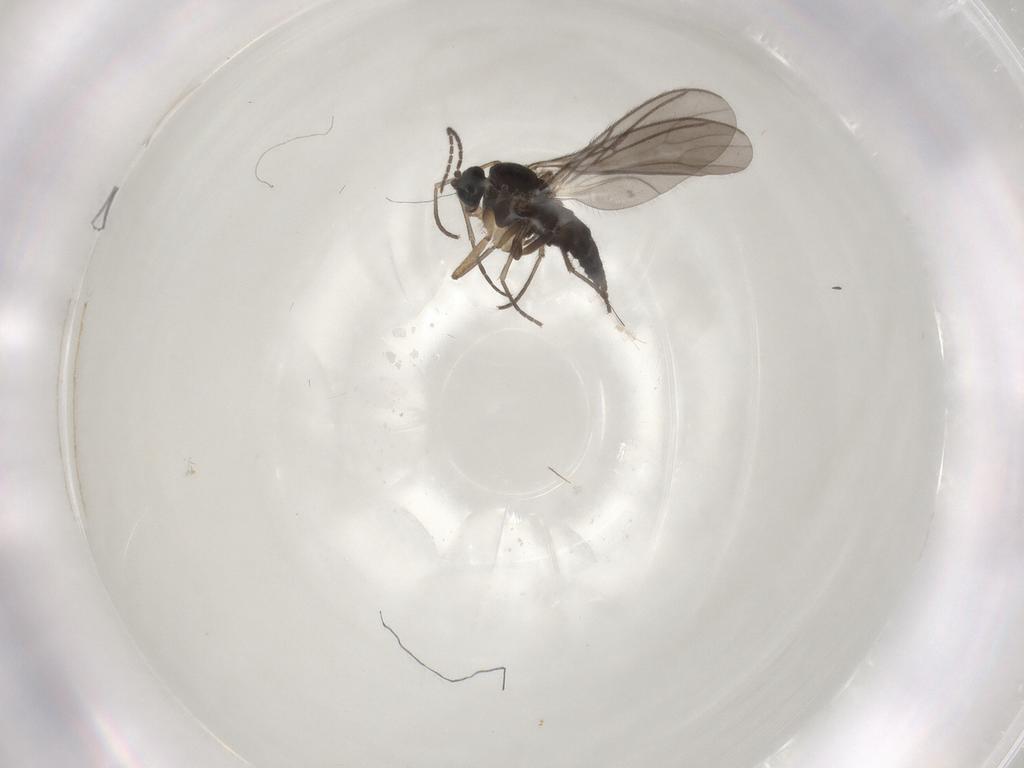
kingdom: Animalia
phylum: Arthropoda
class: Insecta
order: Diptera
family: Sciaridae
